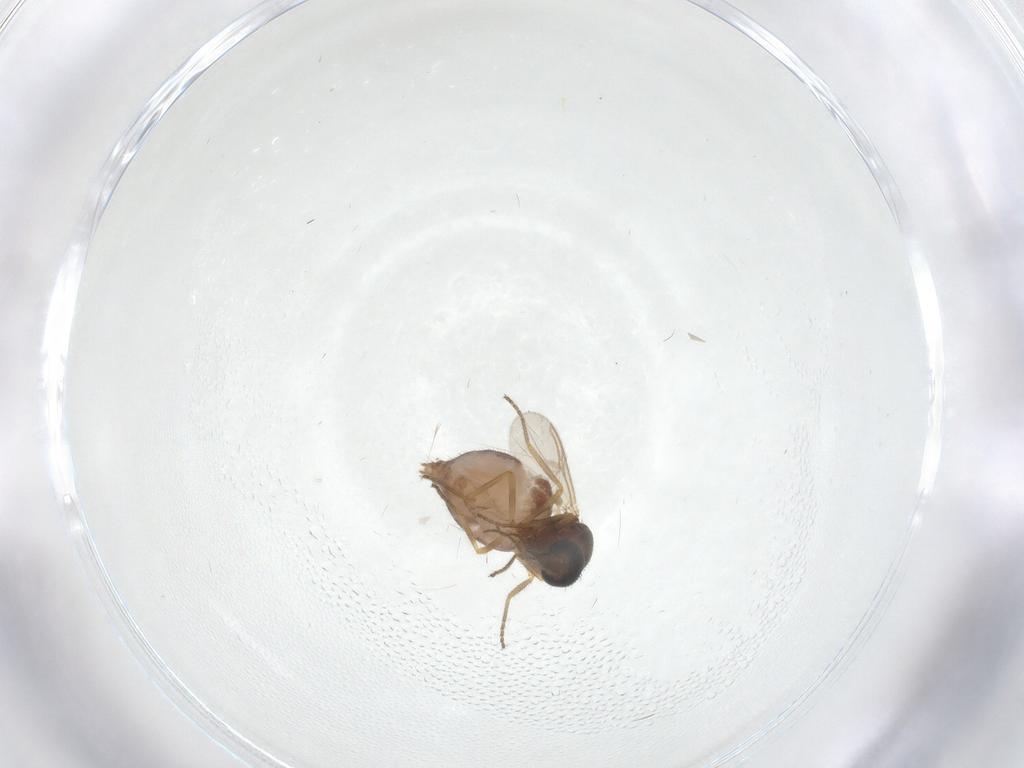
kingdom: Animalia
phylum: Arthropoda
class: Insecta
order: Diptera
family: Ceratopogonidae
